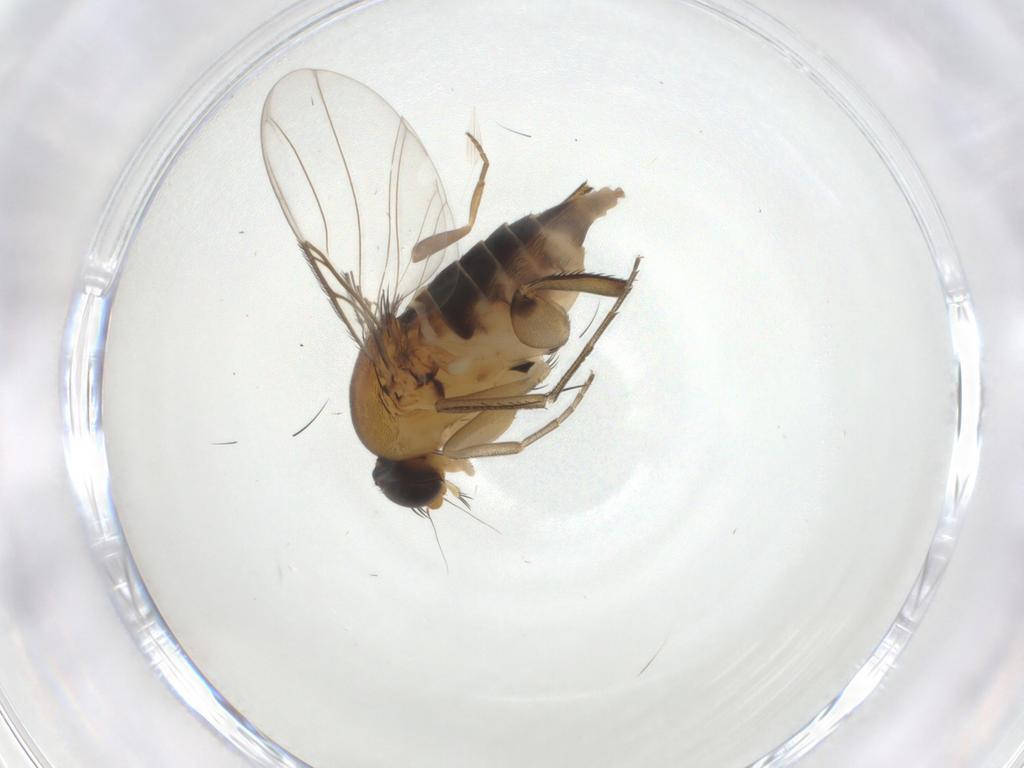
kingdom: Animalia
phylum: Arthropoda
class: Insecta
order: Diptera
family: Phoridae
